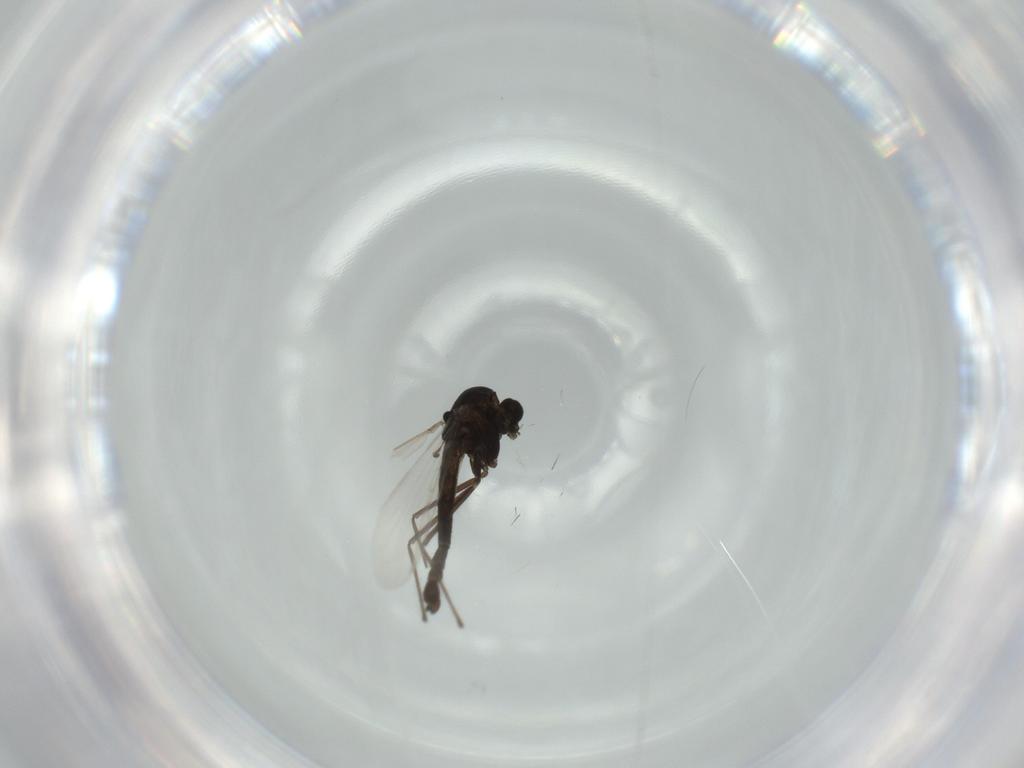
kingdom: Animalia
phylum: Arthropoda
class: Insecta
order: Diptera
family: Chironomidae
